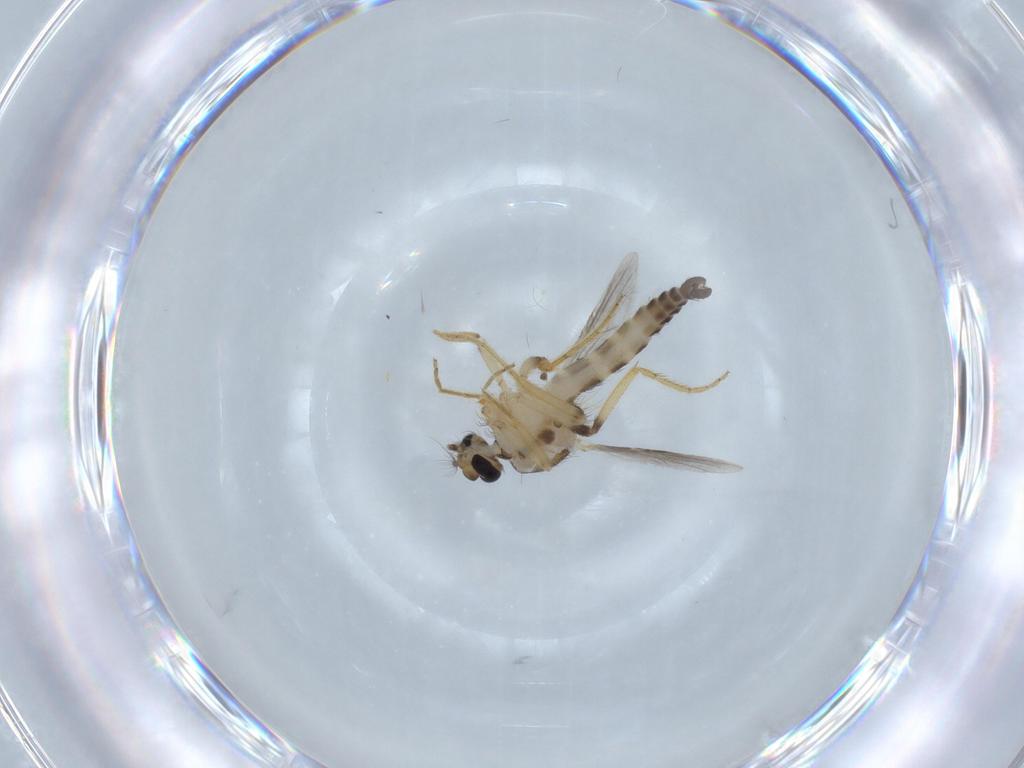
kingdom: Animalia
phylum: Arthropoda
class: Insecta
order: Diptera
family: Ceratopogonidae
